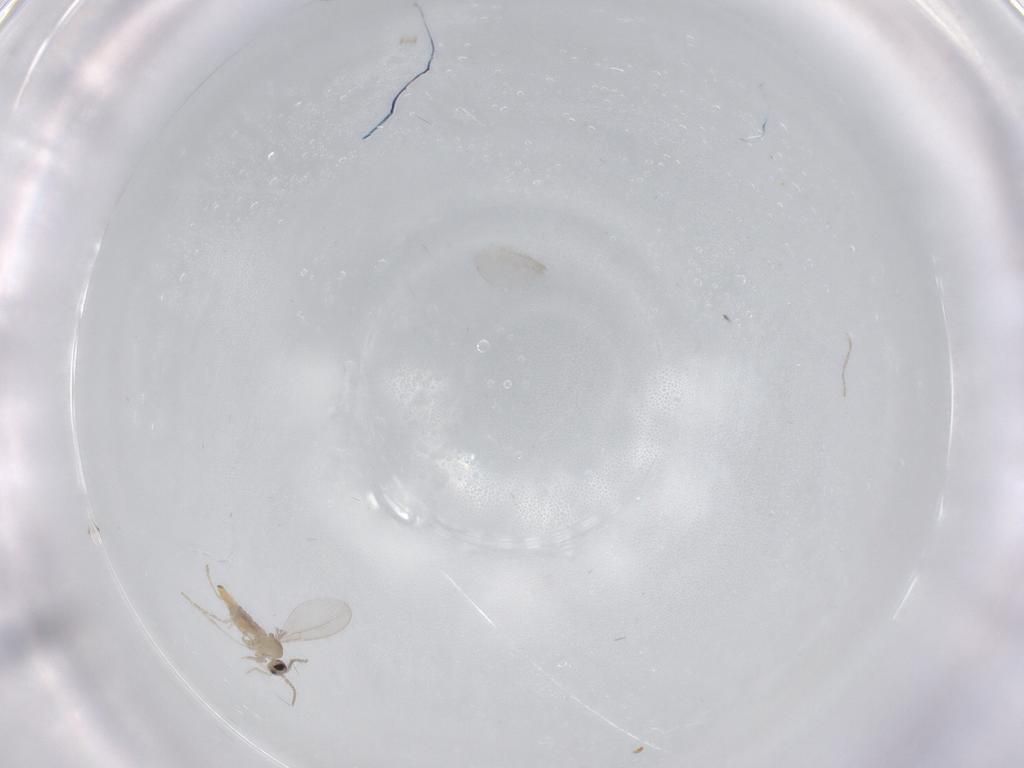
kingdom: Animalia
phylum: Arthropoda
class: Insecta
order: Diptera
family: Cecidomyiidae
